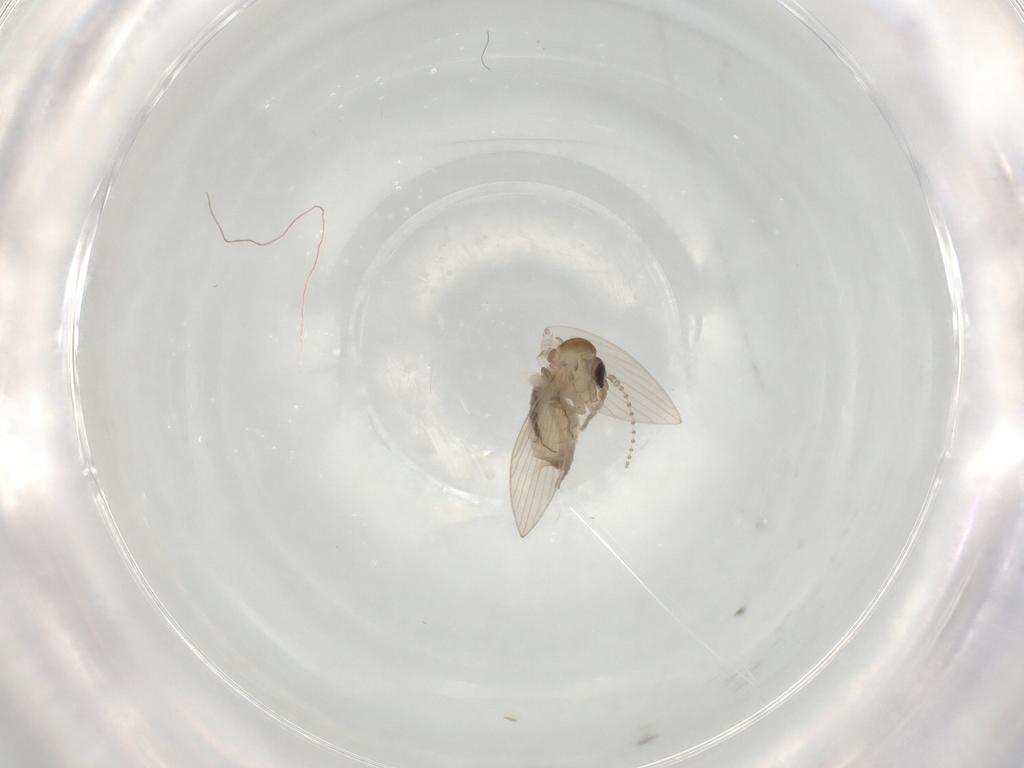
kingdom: Animalia
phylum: Arthropoda
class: Insecta
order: Diptera
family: Psychodidae
